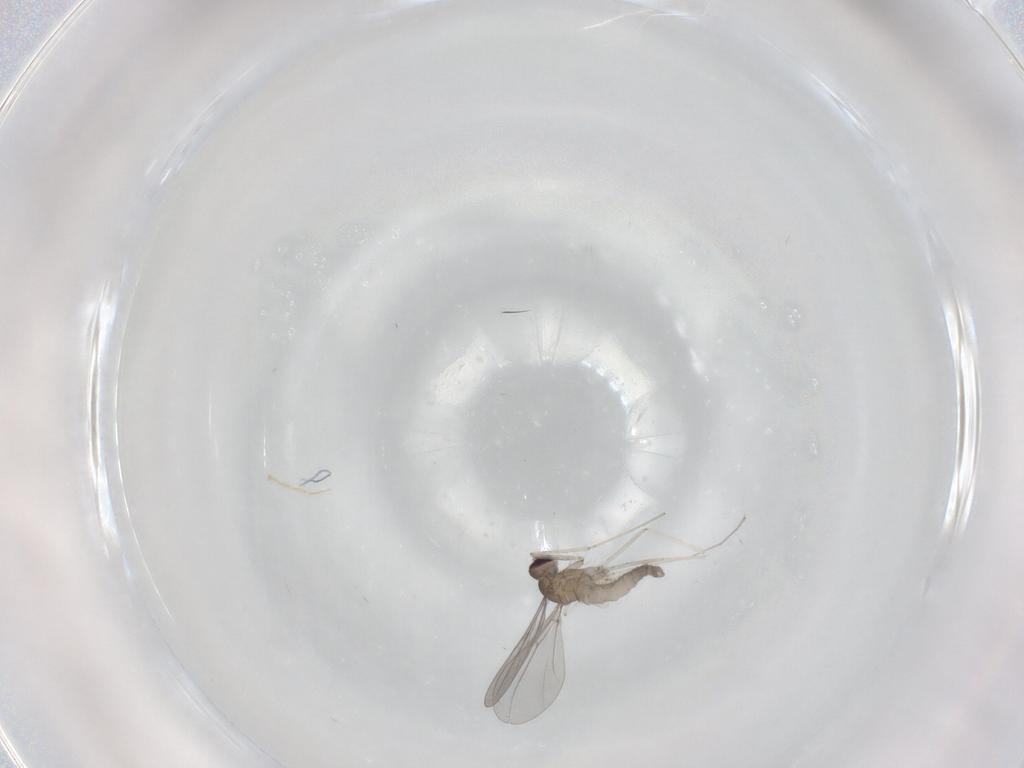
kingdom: Animalia
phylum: Arthropoda
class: Insecta
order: Diptera
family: Cecidomyiidae
